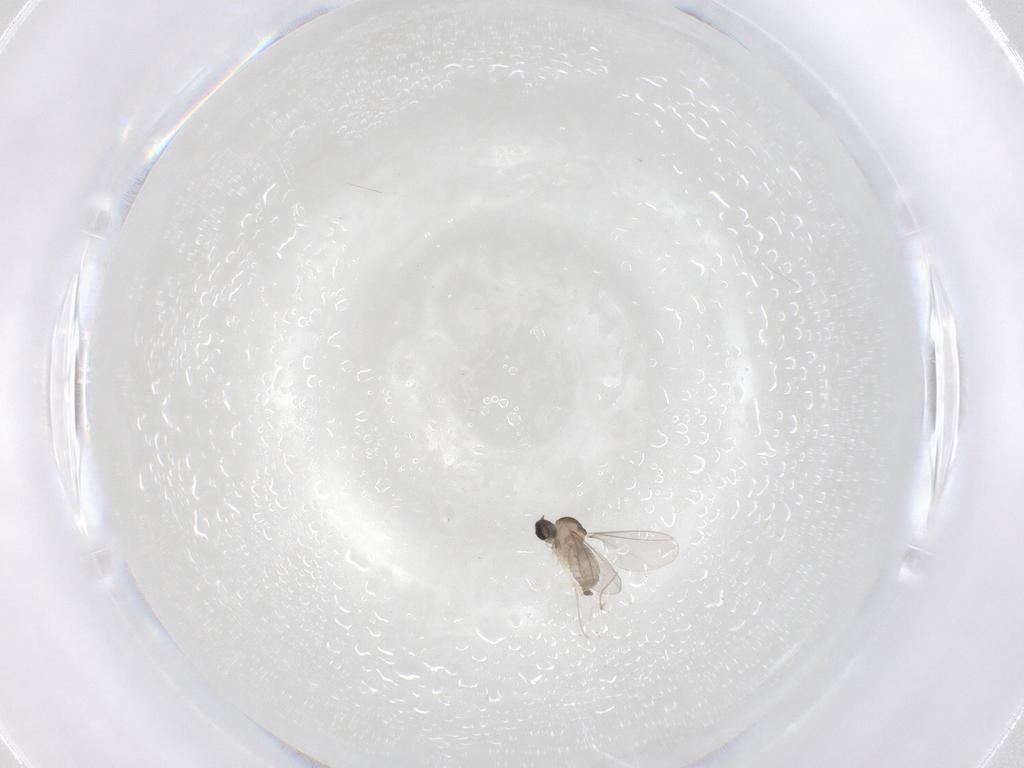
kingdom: Animalia
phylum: Arthropoda
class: Insecta
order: Diptera
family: Cecidomyiidae
